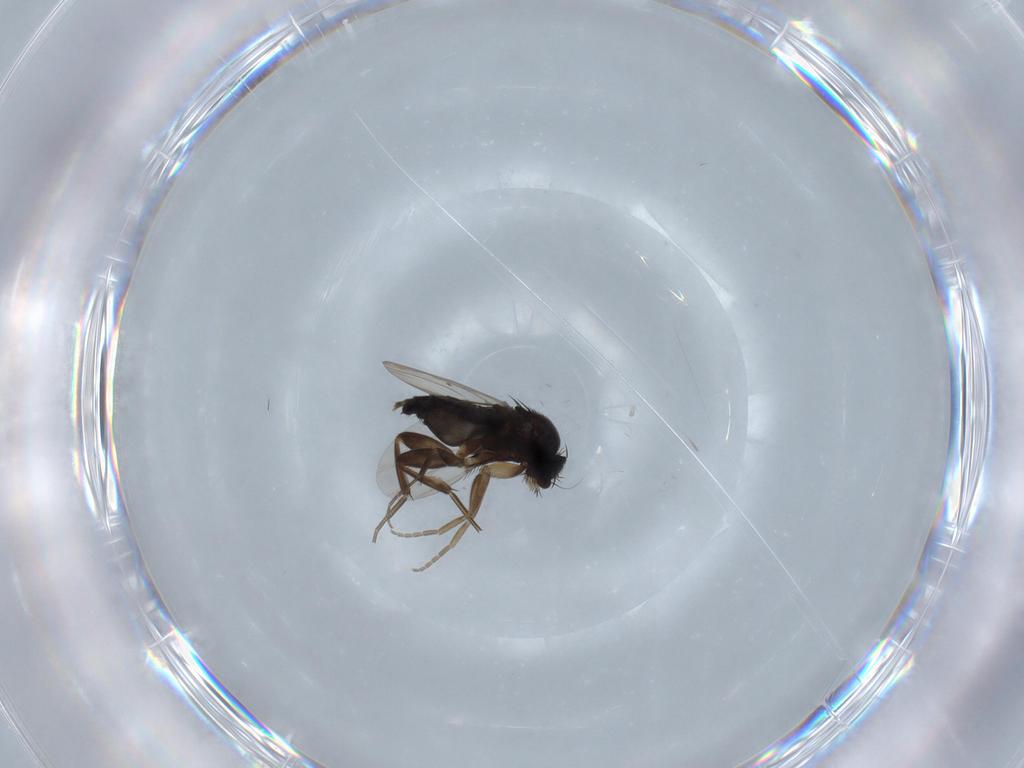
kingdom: Animalia
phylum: Arthropoda
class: Insecta
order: Diptera
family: Phoridae
